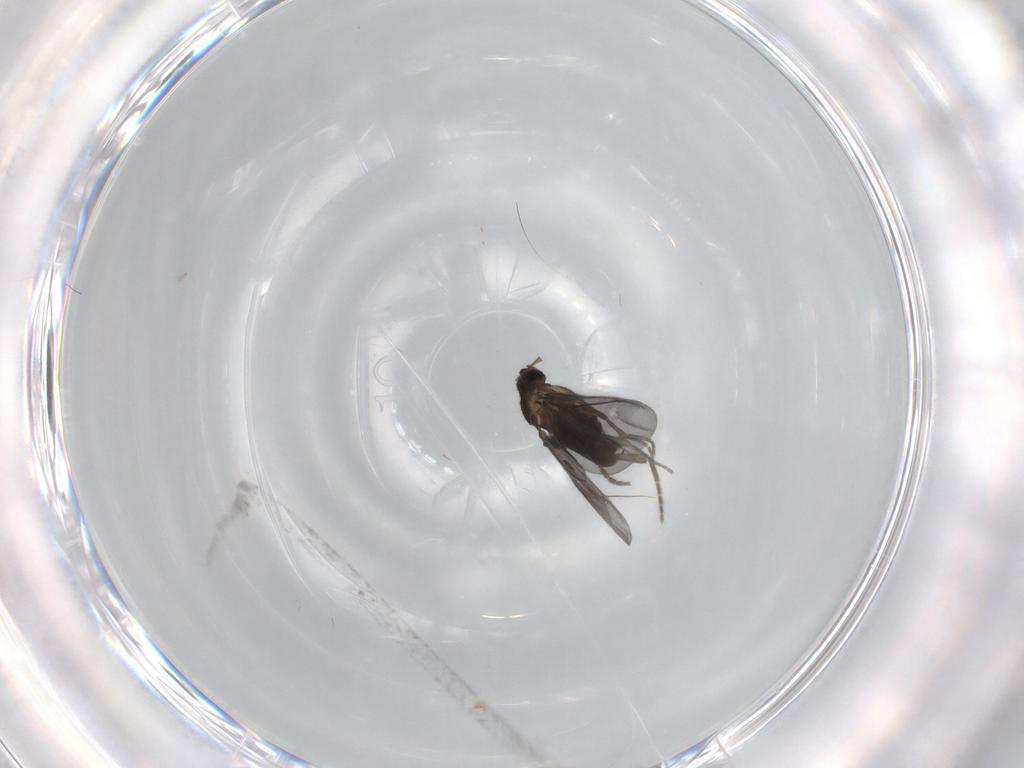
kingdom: Animalia
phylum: Arthropoda
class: Insecta
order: Diptera
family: Phoridae
